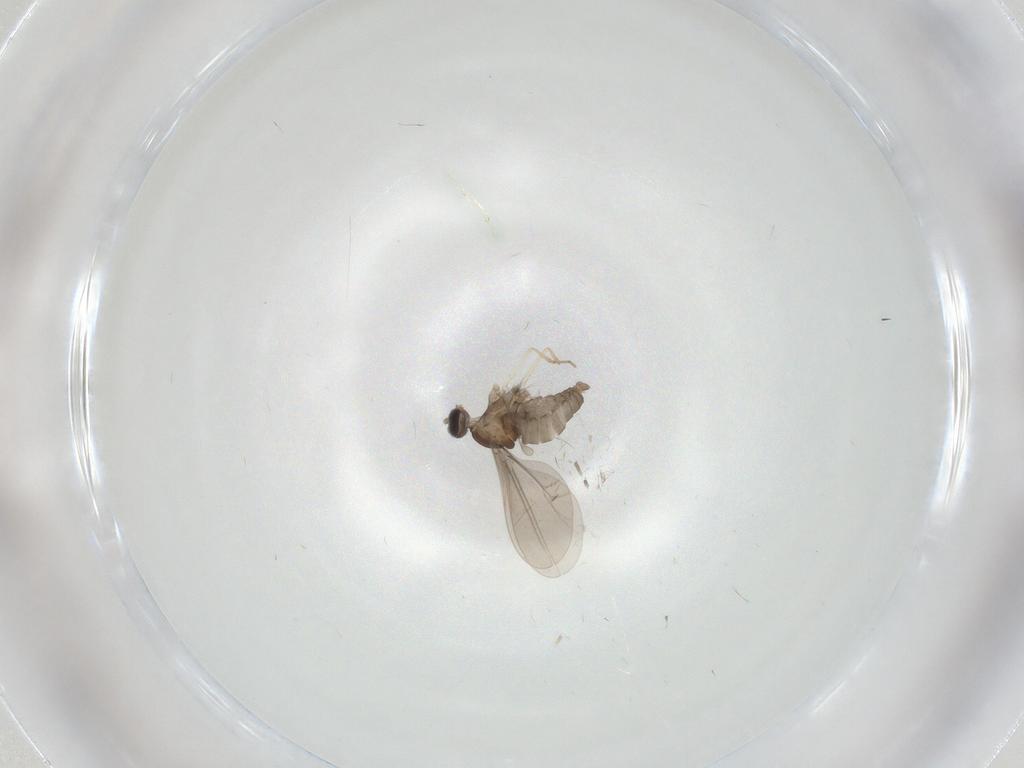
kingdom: Animalia
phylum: Arthropoda
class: Insecta
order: Diptera
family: Cecidomyiidae
